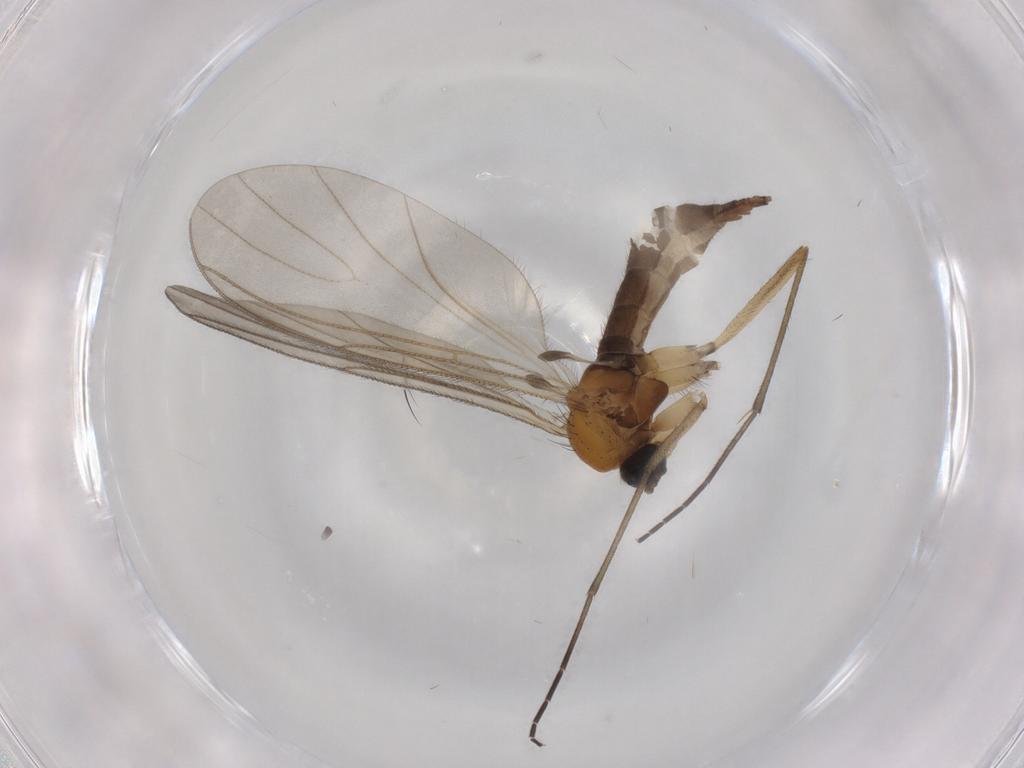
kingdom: Animalia
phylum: Arthropoda
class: Insecta
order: Diptera
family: Sciaridae
